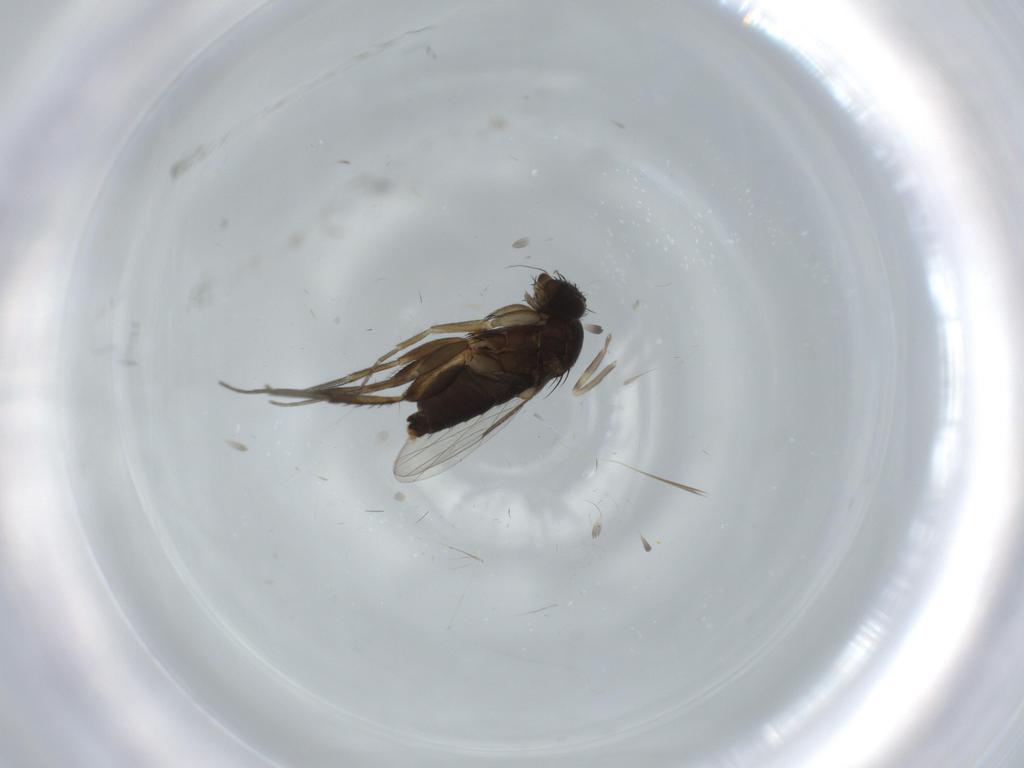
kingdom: Animalia
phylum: Arthropoda
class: Insecta
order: Diptera
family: Phoridae
